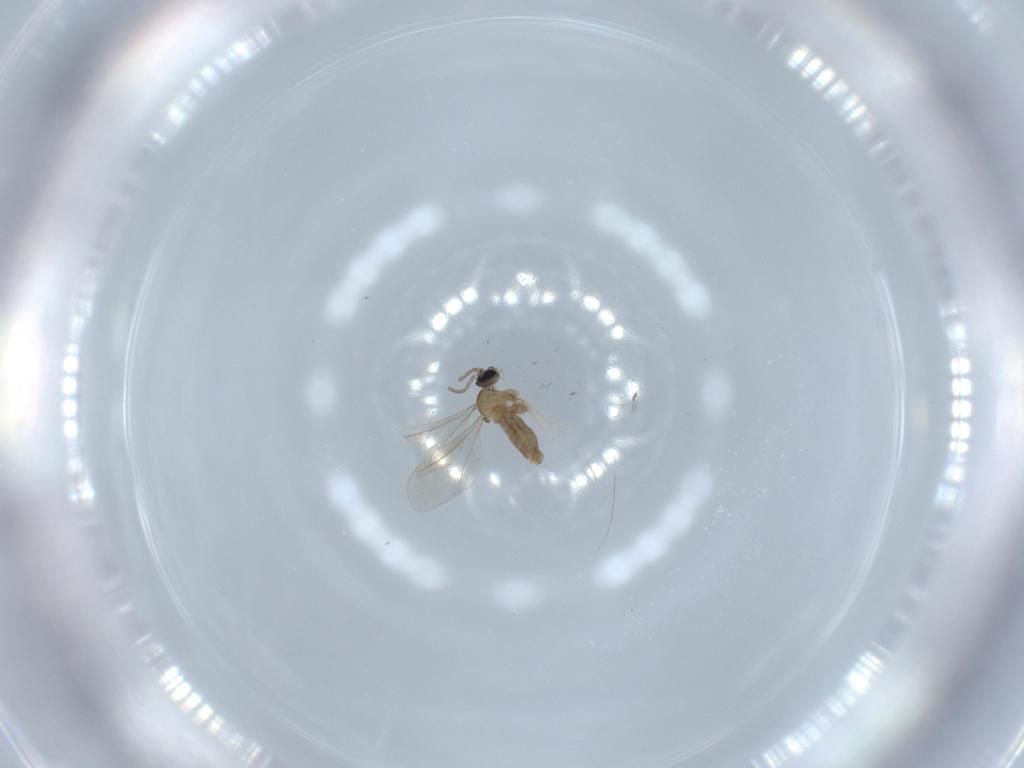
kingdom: Animalia
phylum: Arthropoda
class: Insecta
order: Diptera
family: Cecidomyiidae
